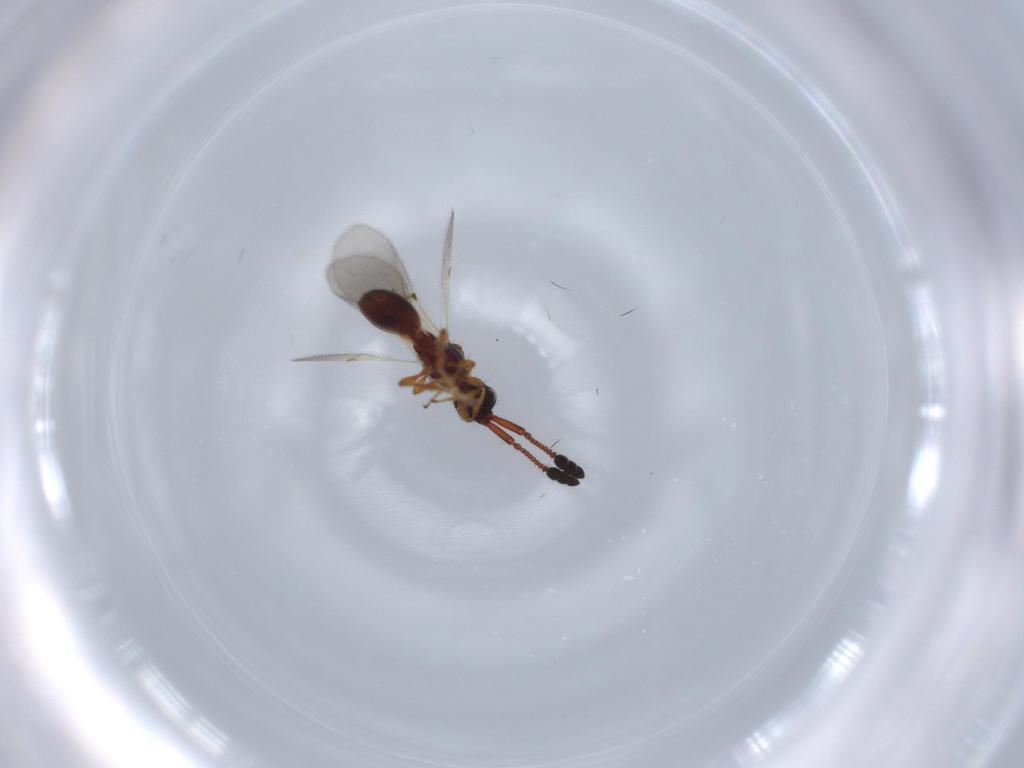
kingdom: Animalia
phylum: Arthropoda
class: Insecta
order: Hymenoptera
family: Diapriidae
